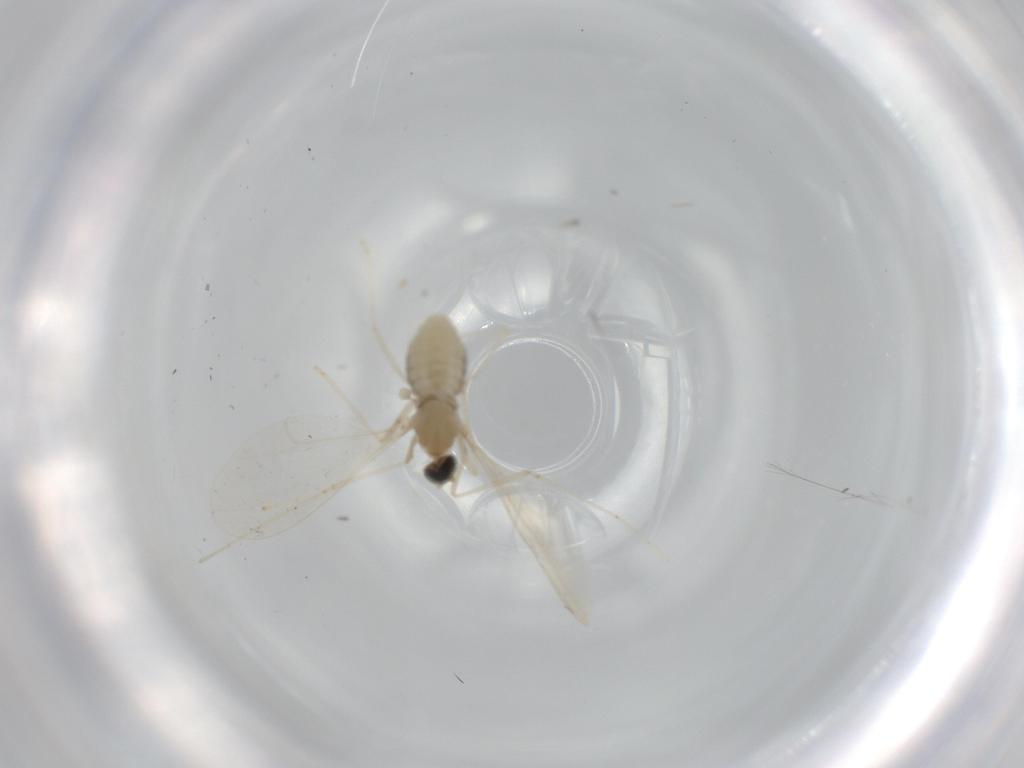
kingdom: Animalia
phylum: Arthropoda
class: Insecta
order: Diptera
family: Cecidomyiidae
